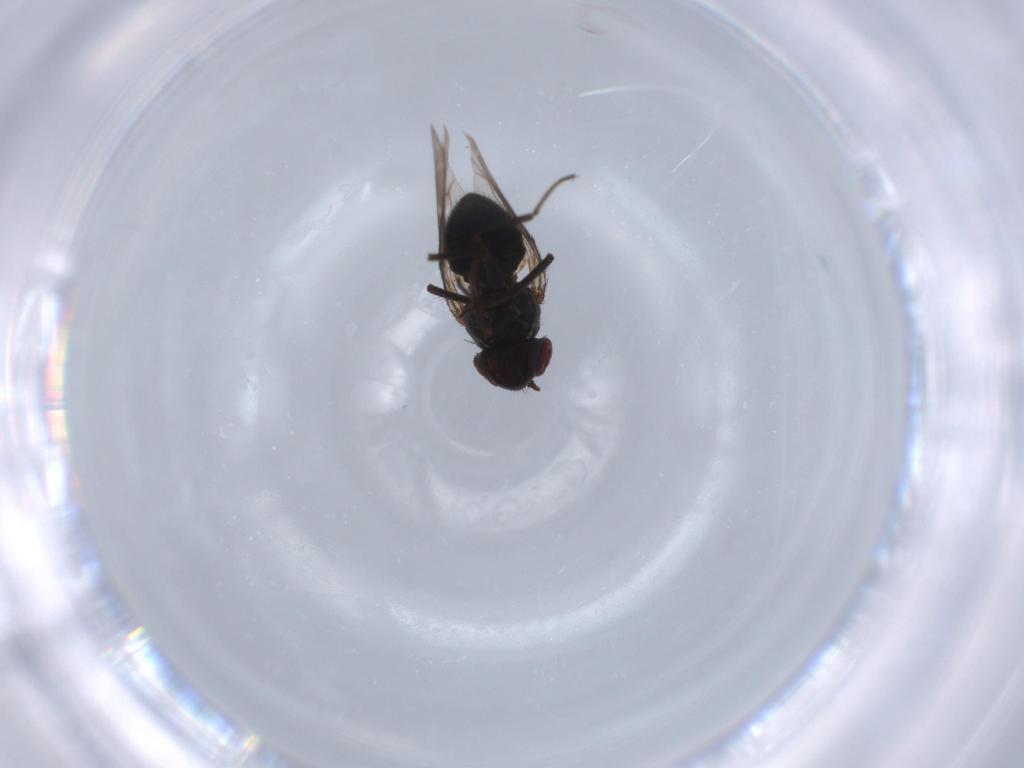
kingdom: Animalia
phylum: Arthropoda
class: Insecta
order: Diptera
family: Ephydridae
